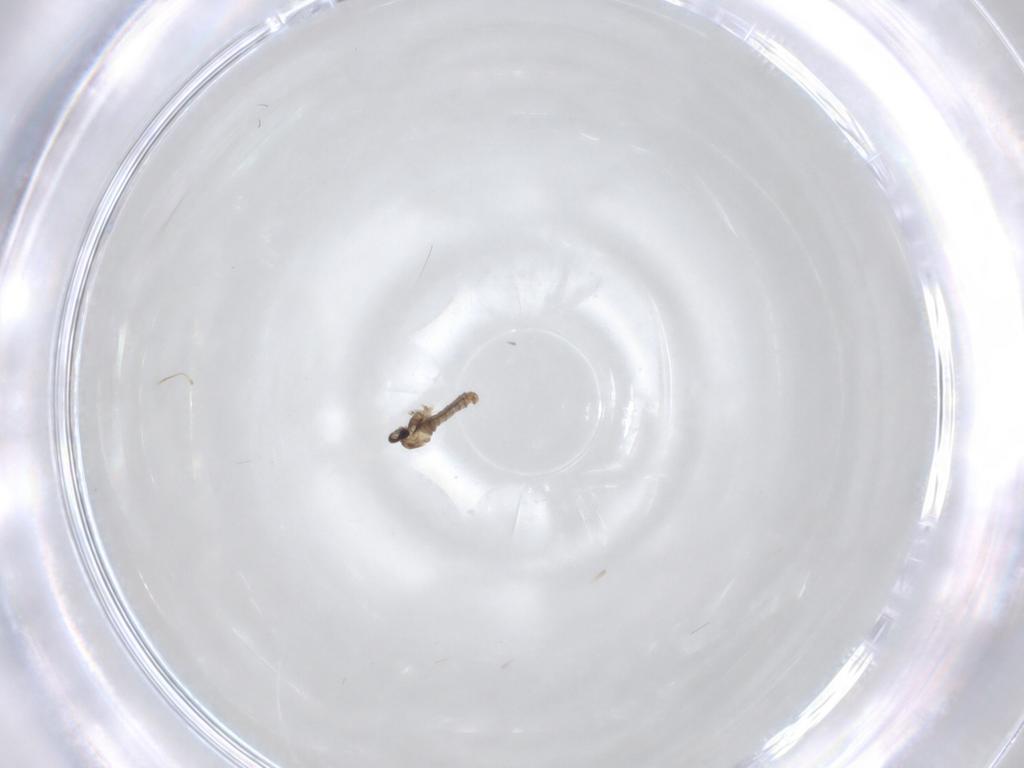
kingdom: Animalia
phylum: Arthropoda
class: Insecta
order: Diptera
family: Cecidomyiidae
